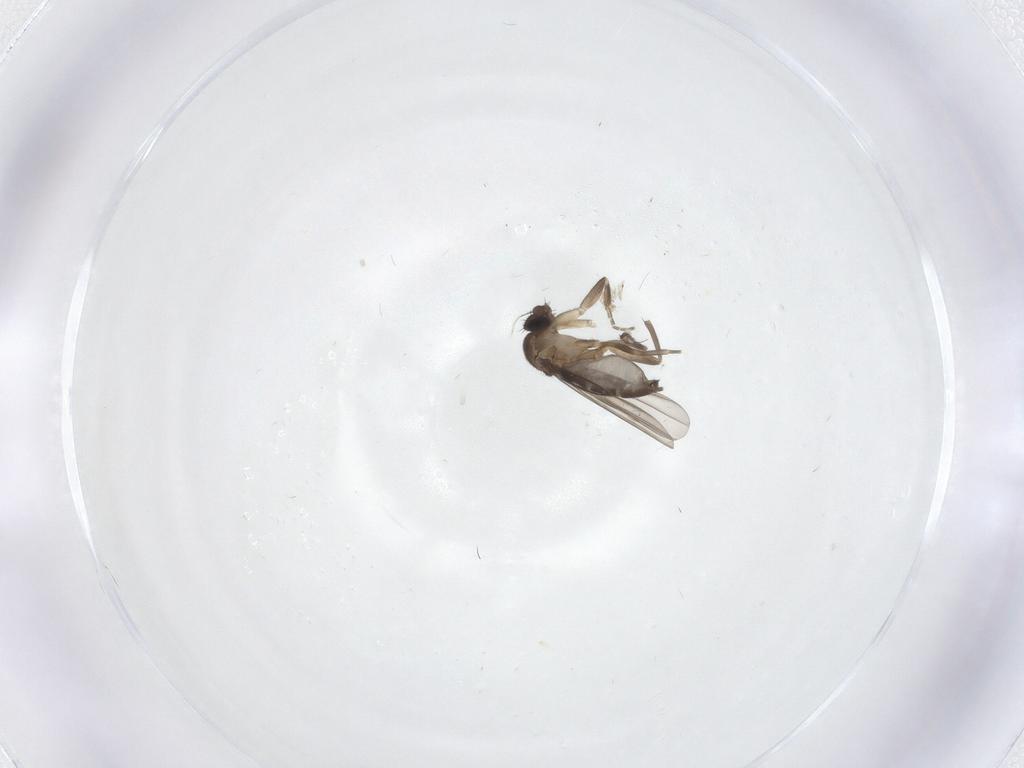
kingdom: Animalia
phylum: Arthropoda
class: Insecta
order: Diptera
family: Phoridae
